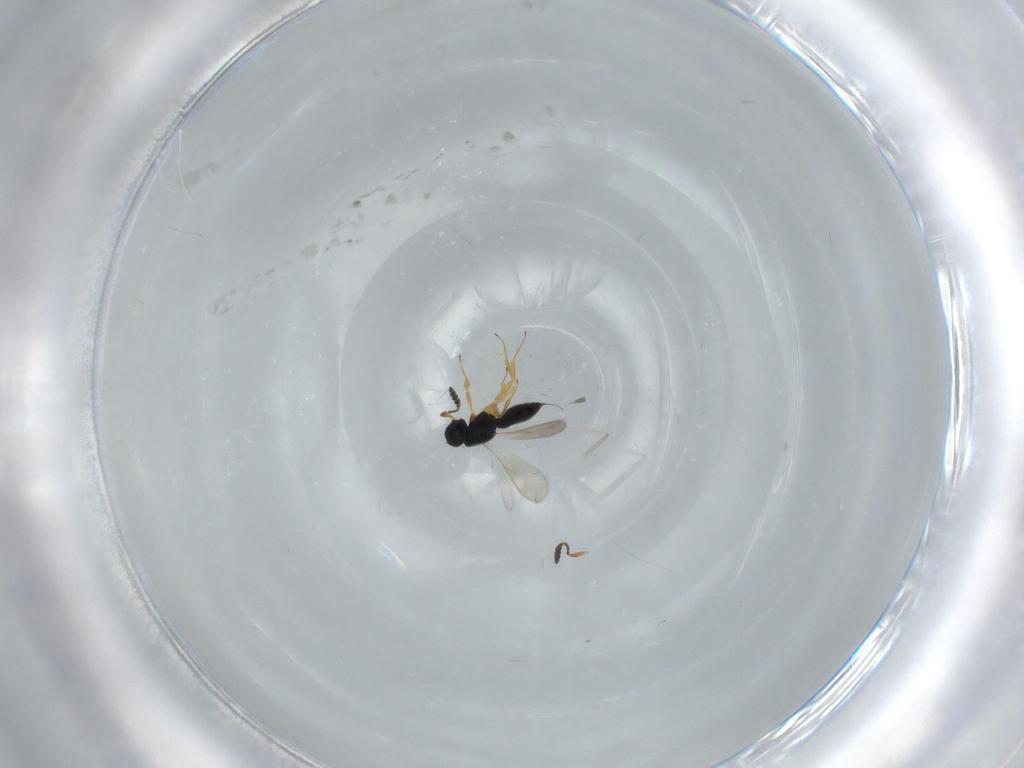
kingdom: Animalia
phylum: Arthropoda
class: Insecta
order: Hymenoptera
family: Scelionidae
